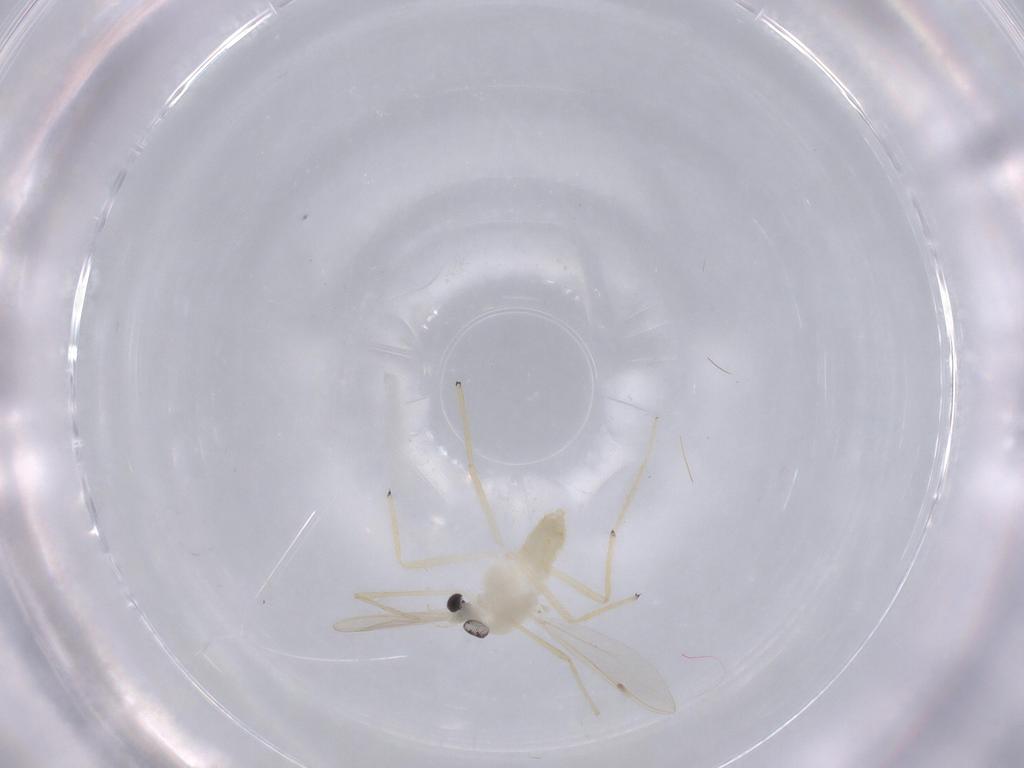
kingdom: Animalia
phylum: Arthropoda
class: Insecta
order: Diptera
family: Chironomidae
